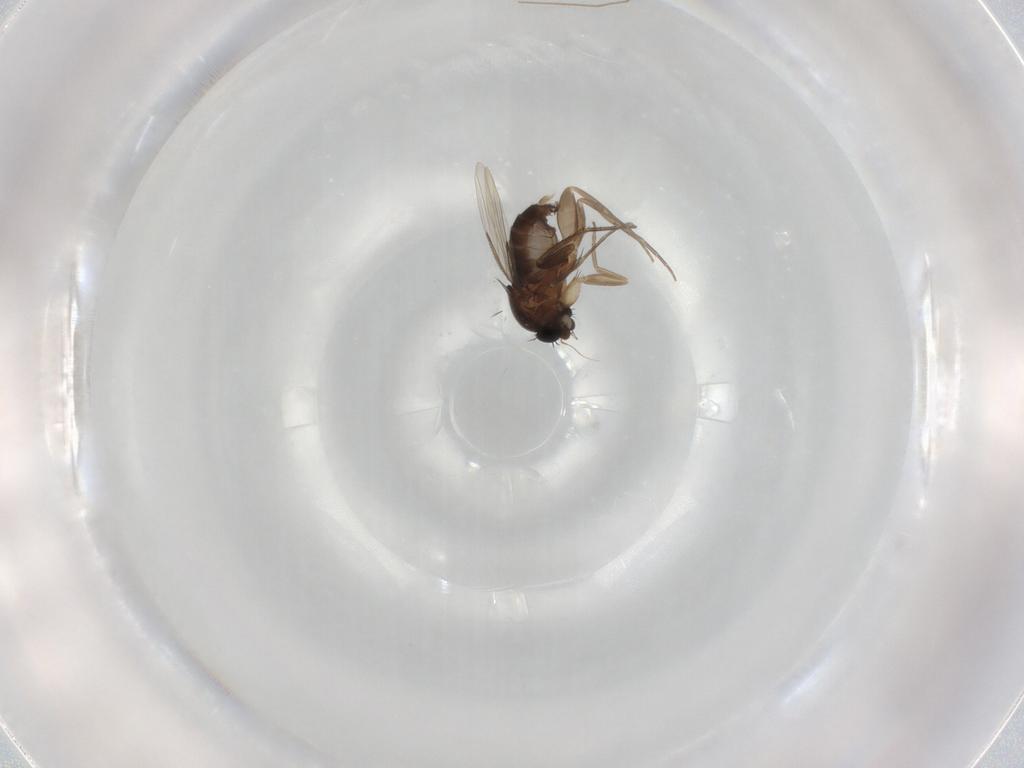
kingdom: Animalia
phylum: Arthropoda
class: Insecta
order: Diptera
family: Phoridae
